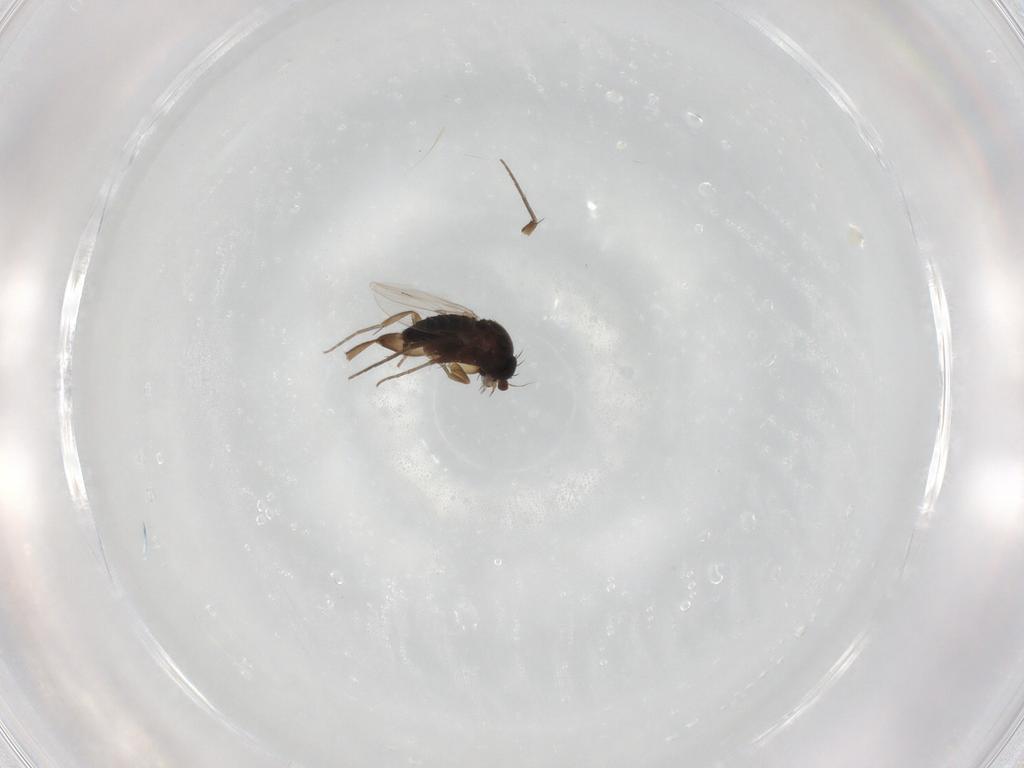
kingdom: Animalia
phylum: Arthropoda
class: Insecta
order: Diptera
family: Phoridae
